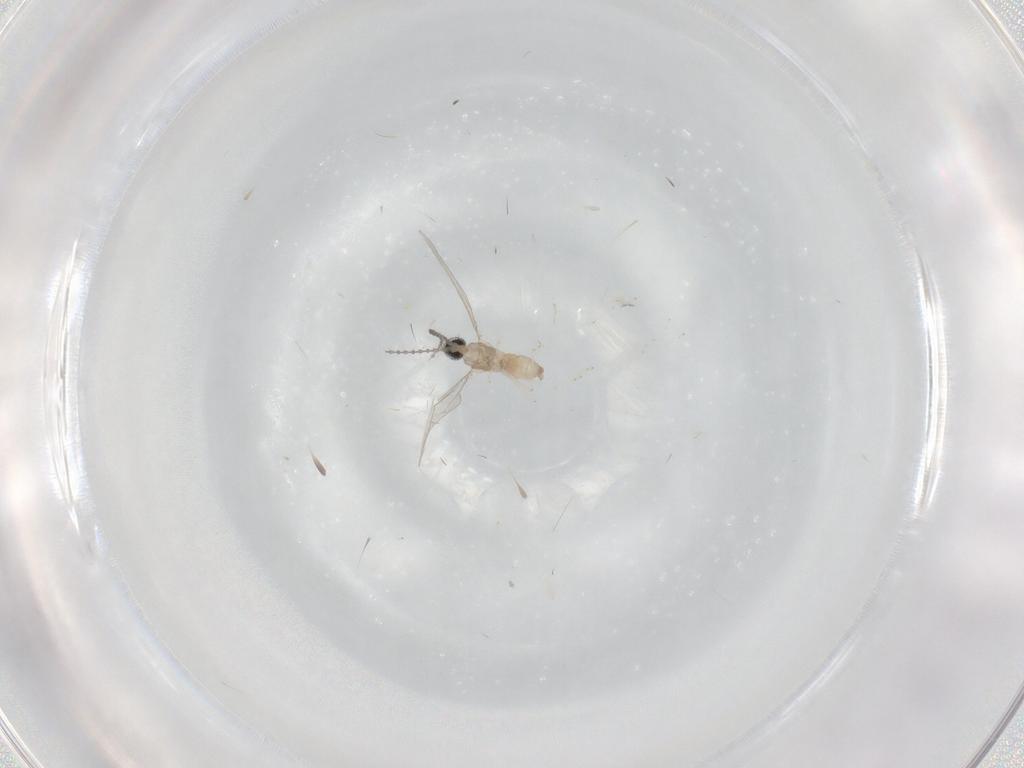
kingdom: Animalia
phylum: Arthropoda
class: Insecta
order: Diptera
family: Cecidomyiidae
